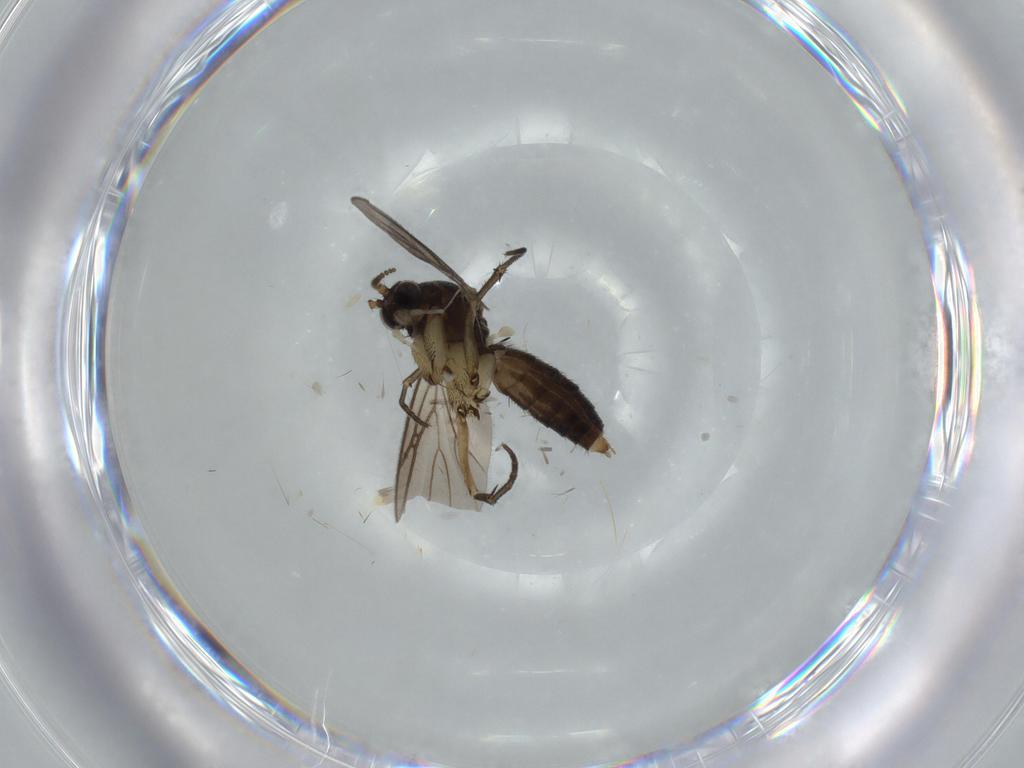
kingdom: Animalia
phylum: Arthropoda
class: Insecta
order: Diptera
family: Mycetophilidae
